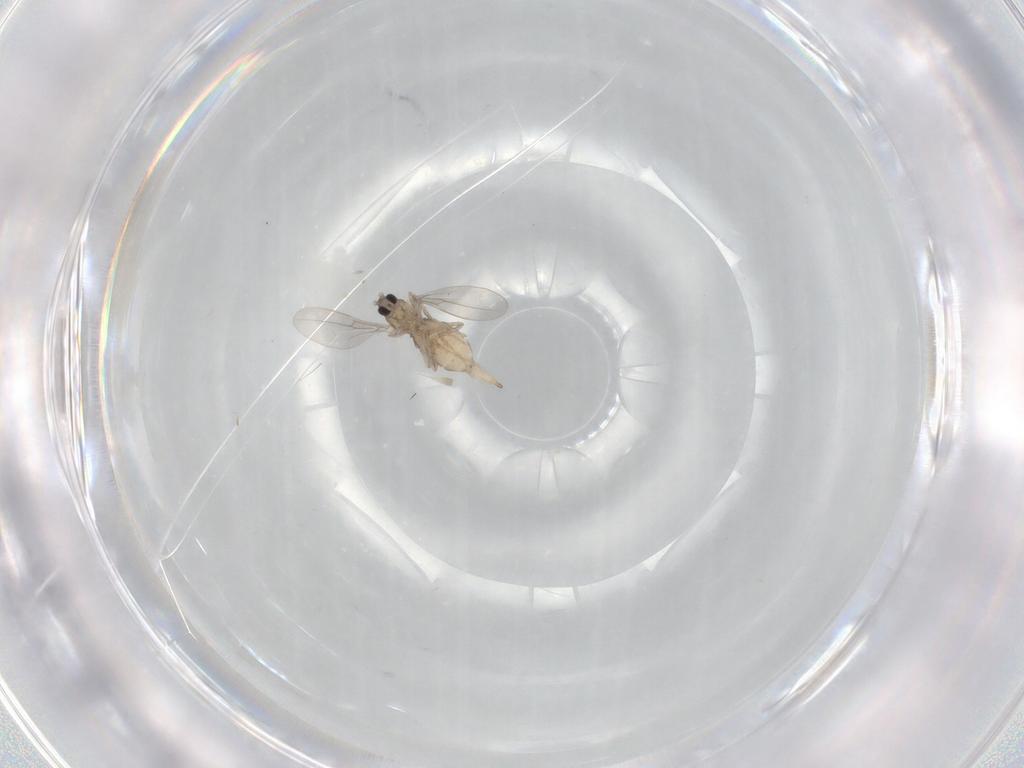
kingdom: Animalia
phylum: Arthropoda
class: Insecta
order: Diptera
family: Cecidomyiidae
